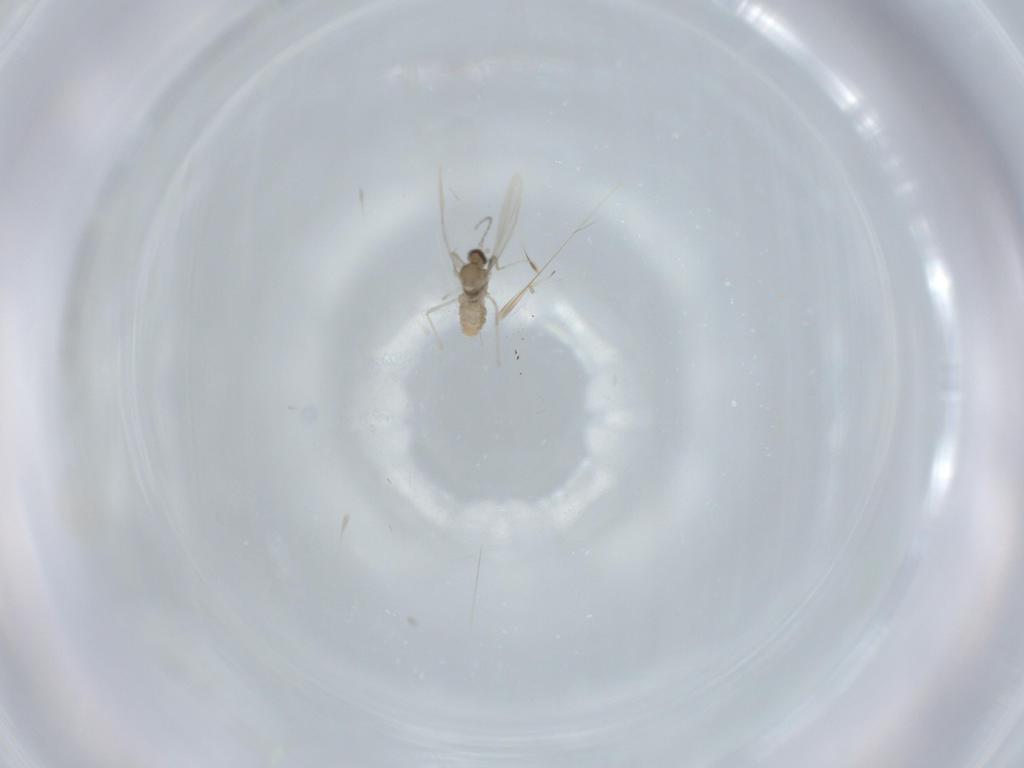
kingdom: Animalia
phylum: Arthropoda
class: Insecta
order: Diptera
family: Cecidomyiidae
